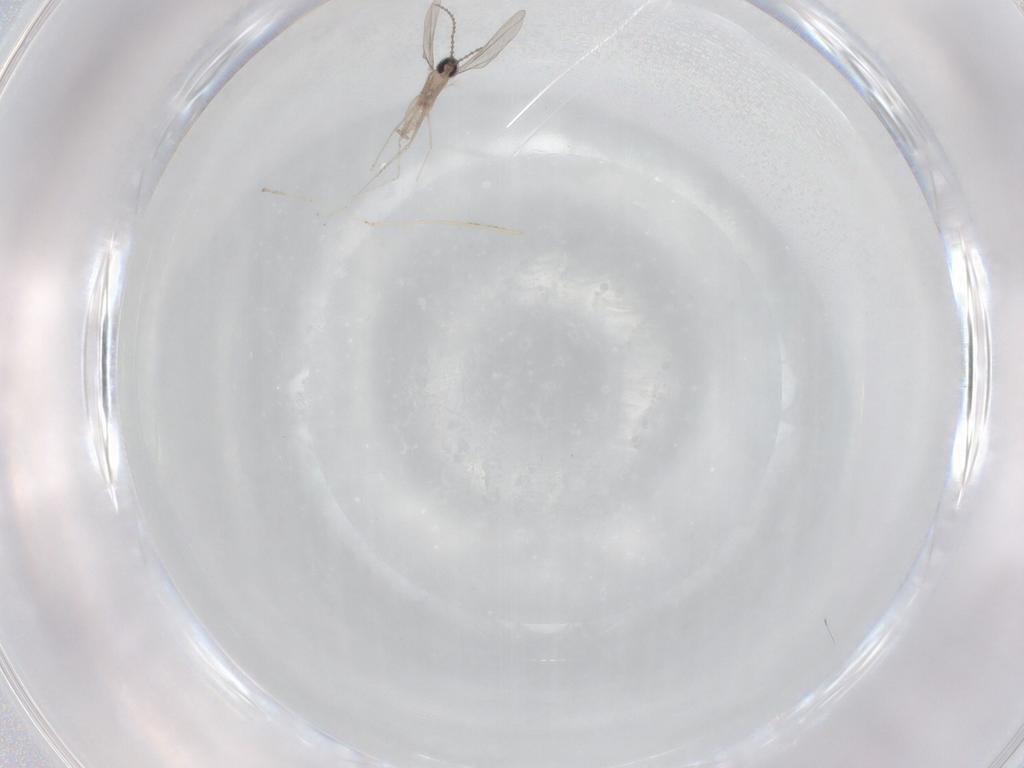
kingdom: Animalia
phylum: Arthropoda
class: Insecta
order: Diptera
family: Cecidomyiidae
